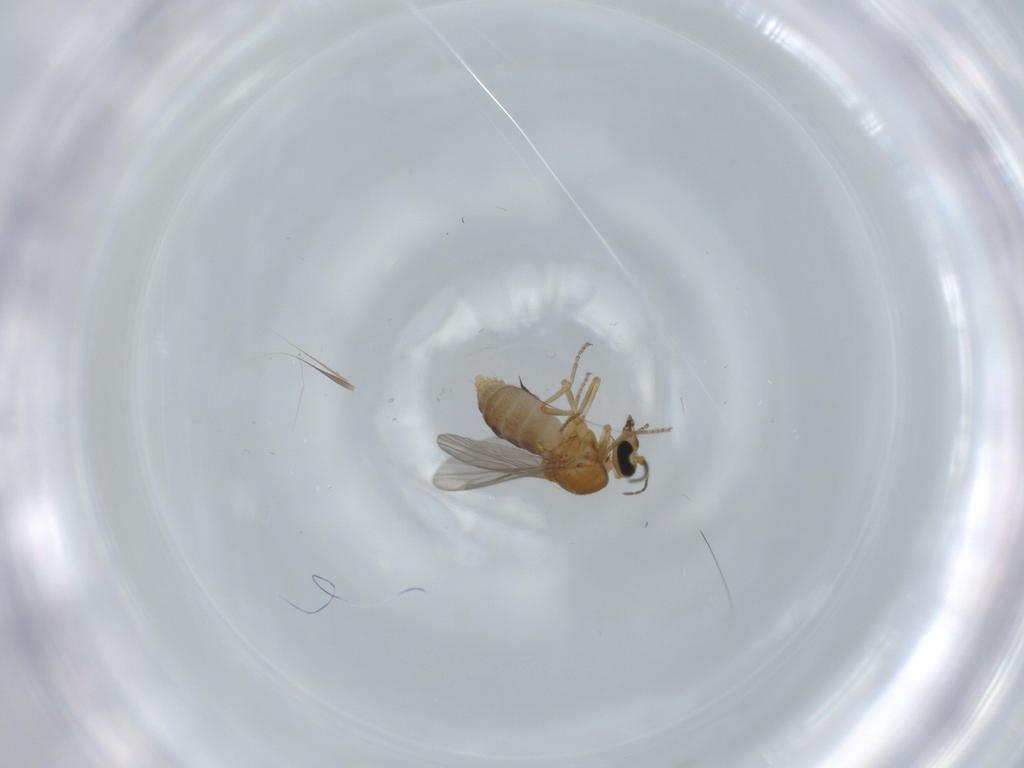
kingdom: Animalia
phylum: Arthropoda
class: Insecta
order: Diptera
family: Ceratopogonidae
